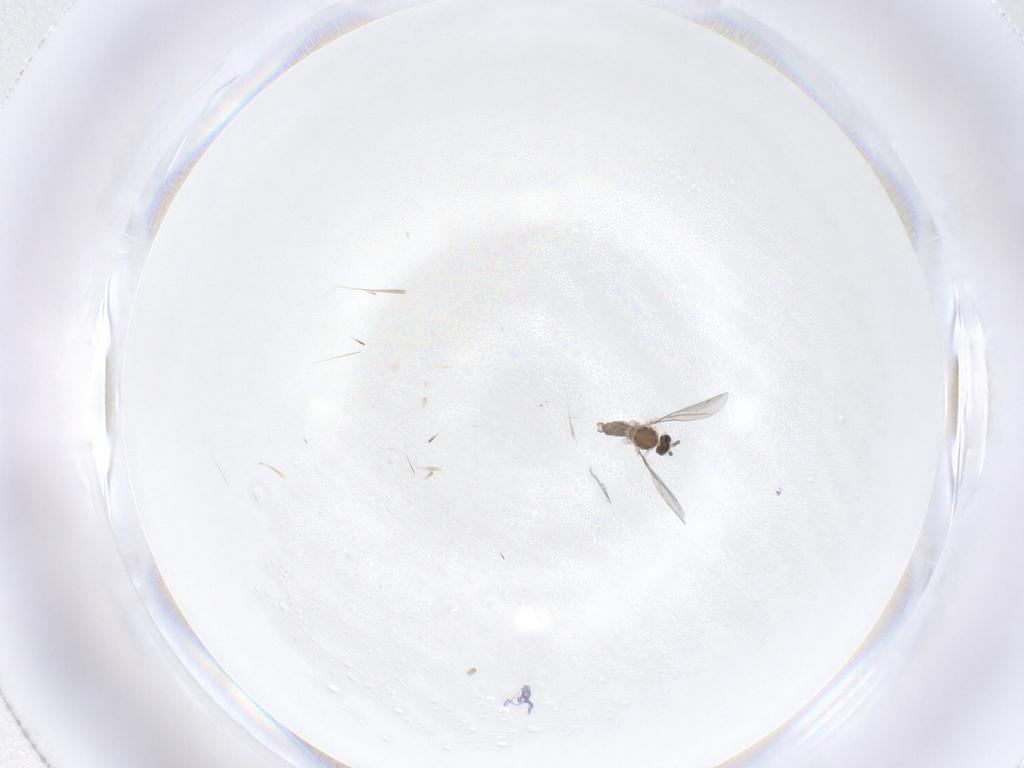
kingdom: Animalia
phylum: Arthropoda
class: Insecta
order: Diptera
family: Cecidomyiidae
